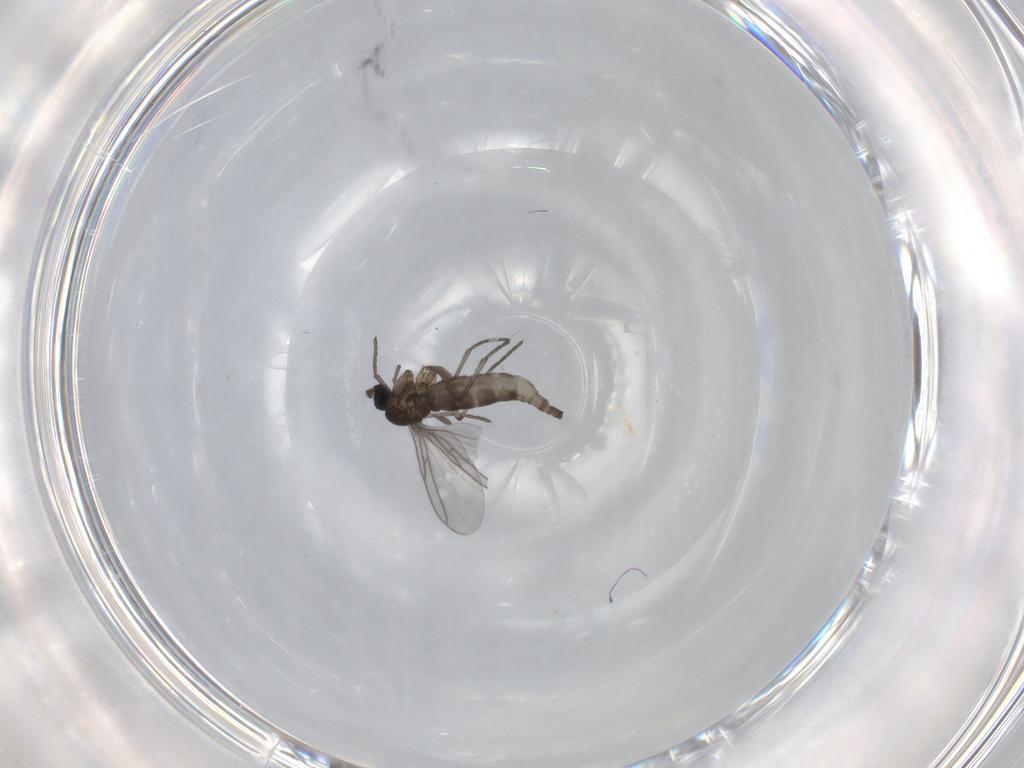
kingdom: Animalia
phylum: Arthropoda
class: Insecta
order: Diptera
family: Sciaridae
